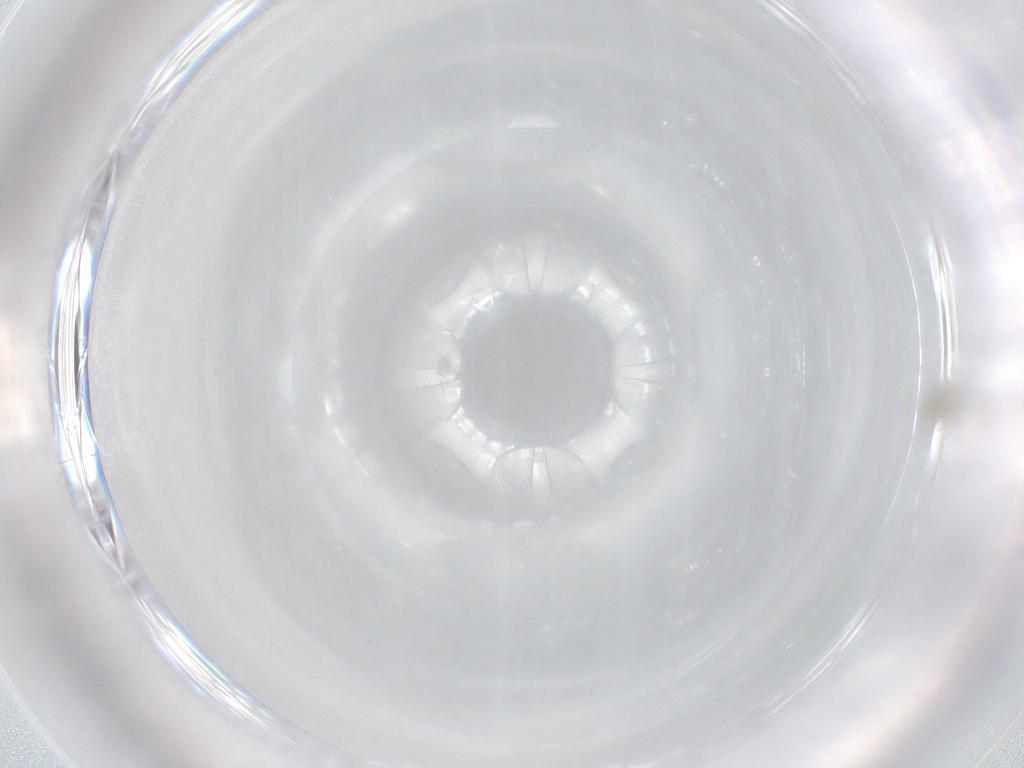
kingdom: Animalia
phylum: Arthropoda
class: Insecta
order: Diptera
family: Cecidomyiidae
